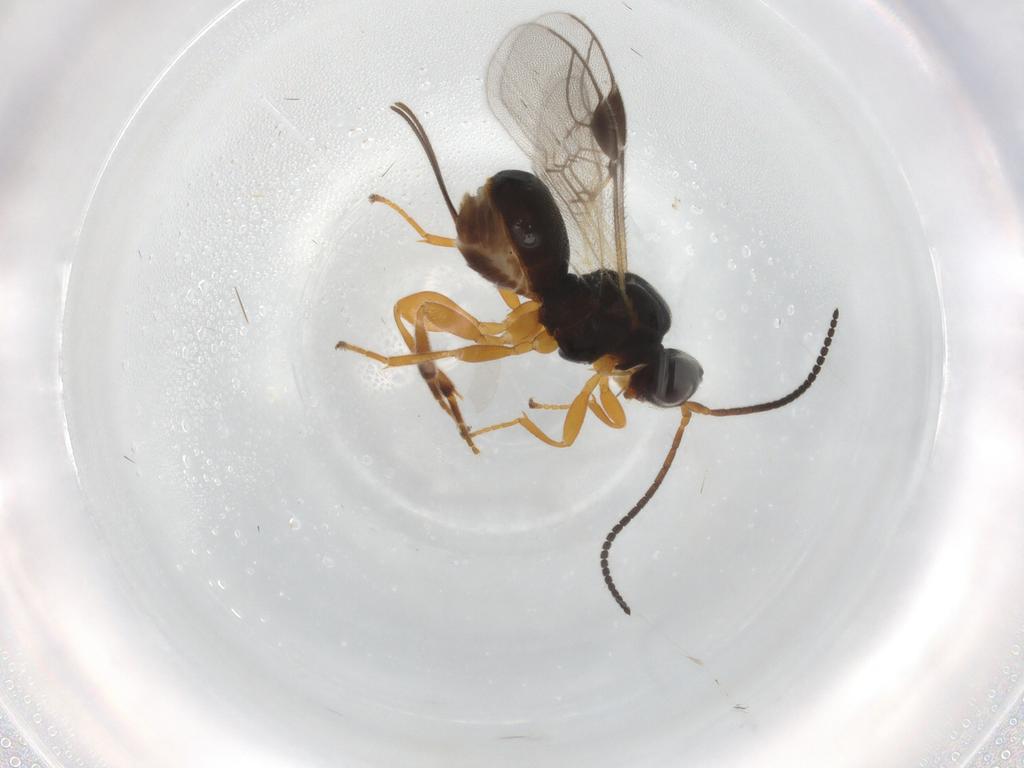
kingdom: Animalia
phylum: Arthropoda
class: Insecta
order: Hymenoptera
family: Braconidae
